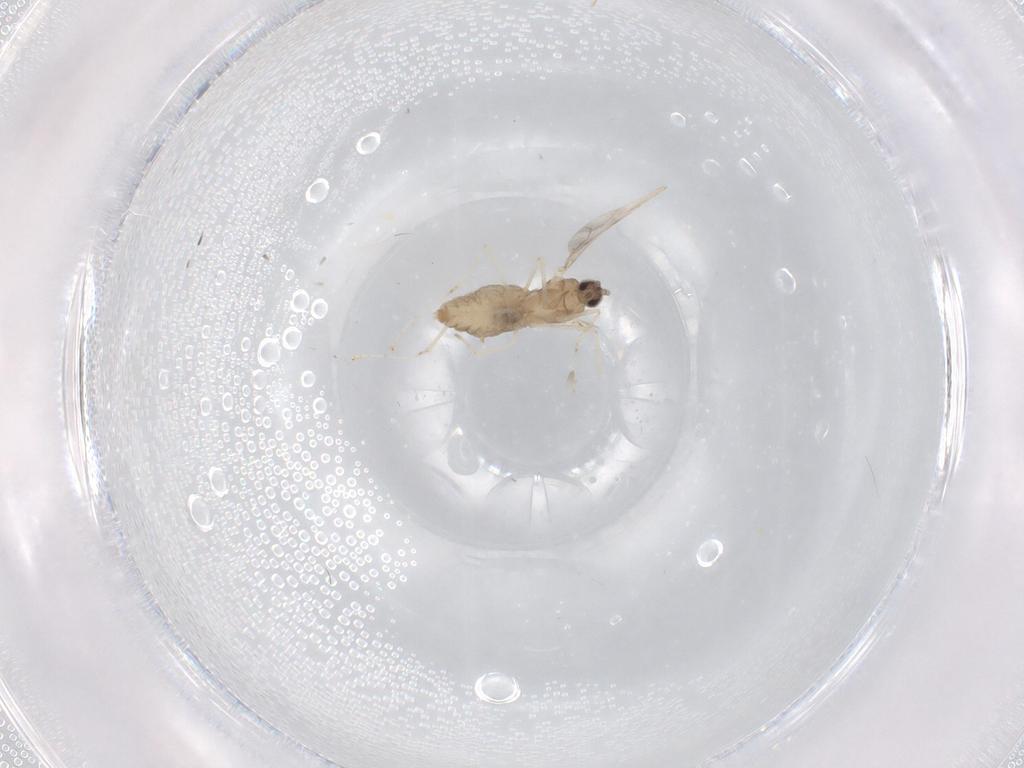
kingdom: Animalia
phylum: Arthropoda
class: Insecta
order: Diptera
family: Cecidomyiidae
